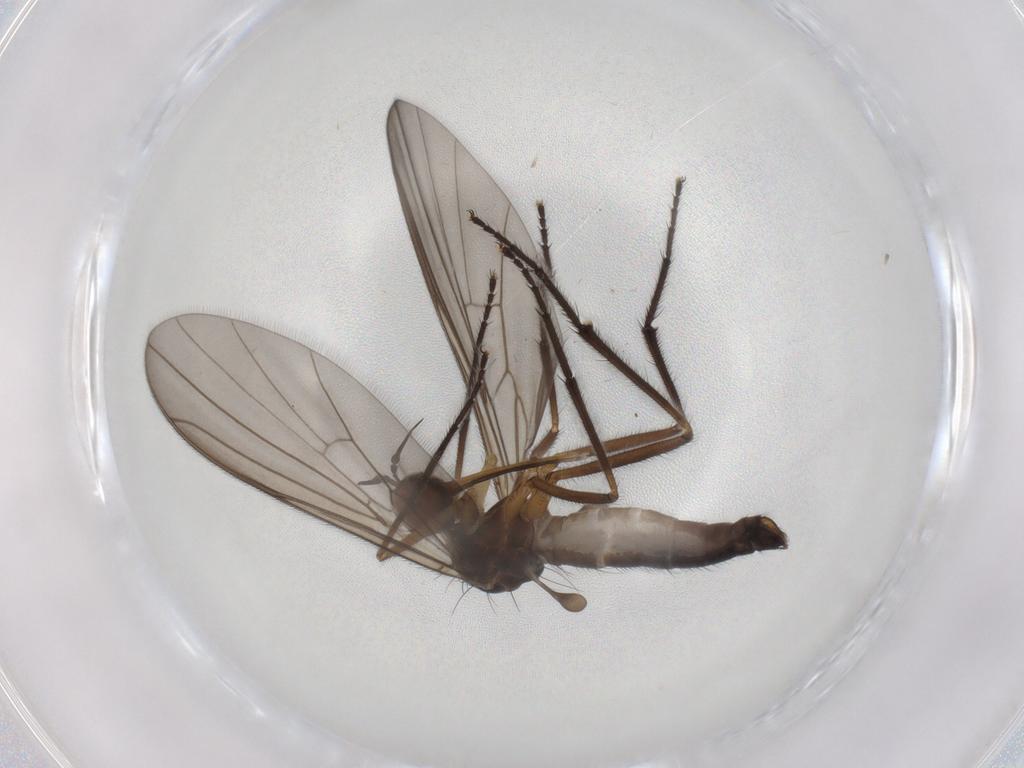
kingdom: Animalia
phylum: Arthropoda
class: Insecta
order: Diptera
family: Empididae
